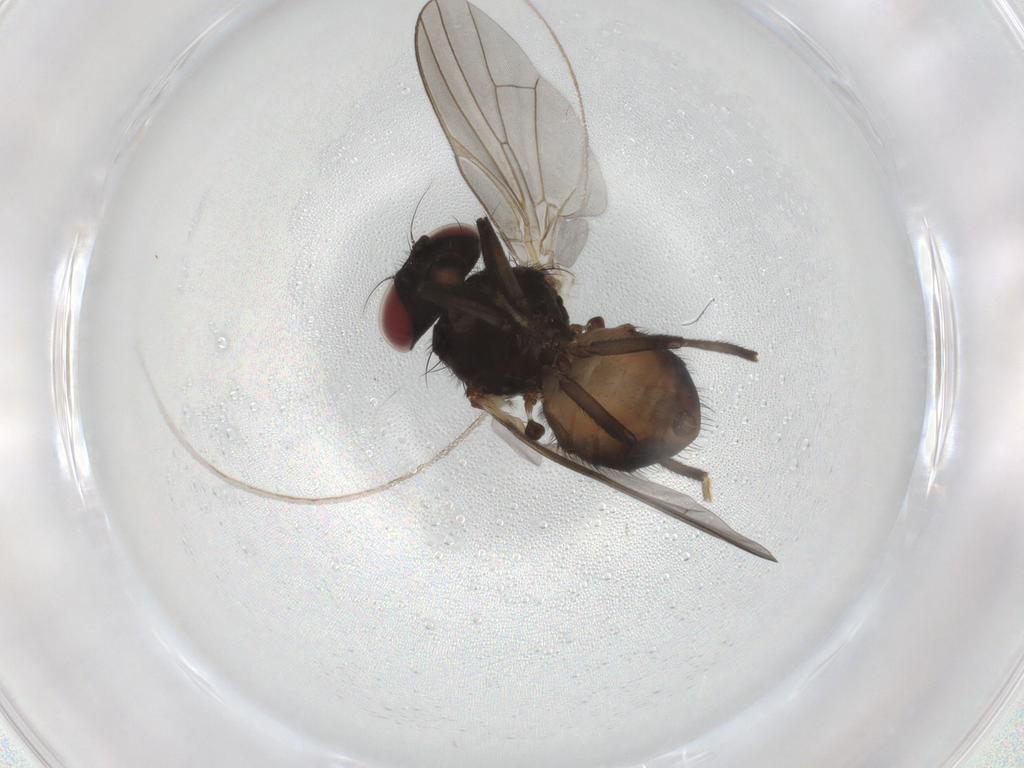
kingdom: Animalia
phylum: Arthropoda
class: Insecta
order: Diptera
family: Lonchaeidae
